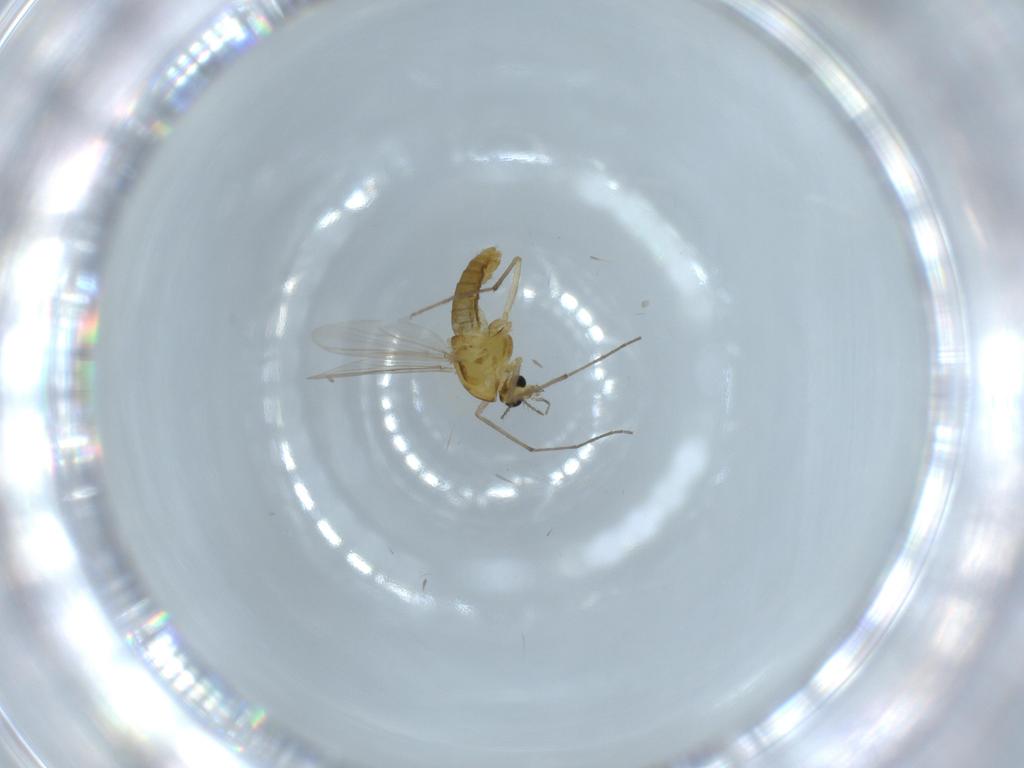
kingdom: Animalia
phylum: Arthropoda
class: Insecta
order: Diptera
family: Chironomidae
